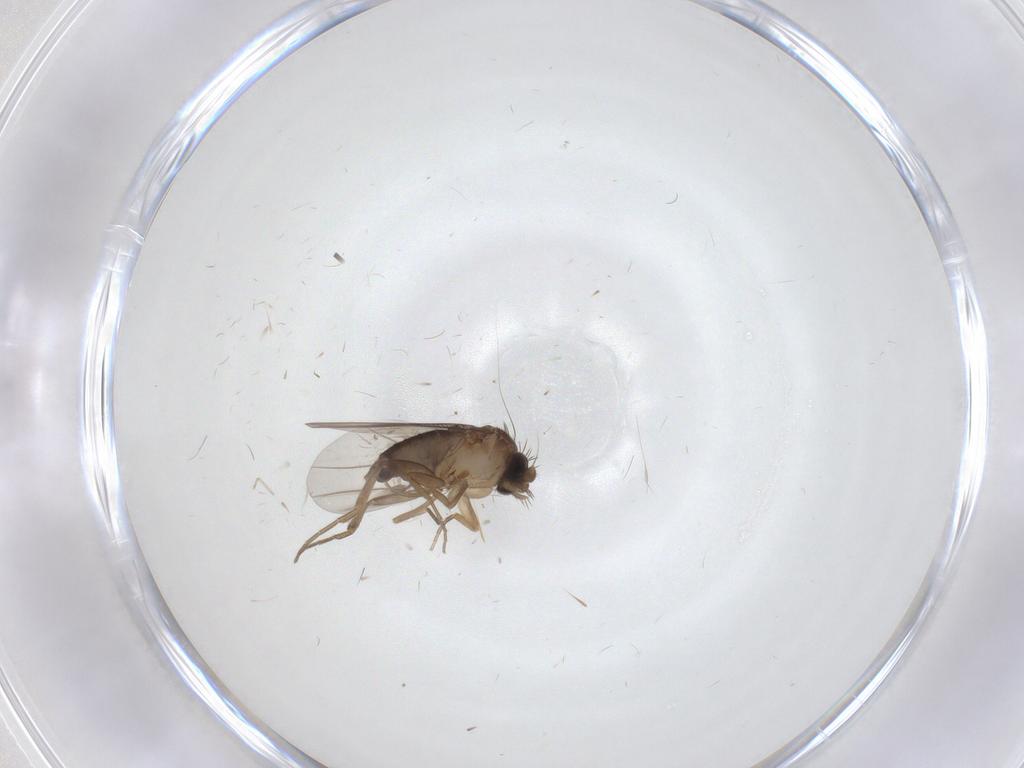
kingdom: Animalia
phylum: Arthropoda
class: Insecta
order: Diptera
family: Phoridae
